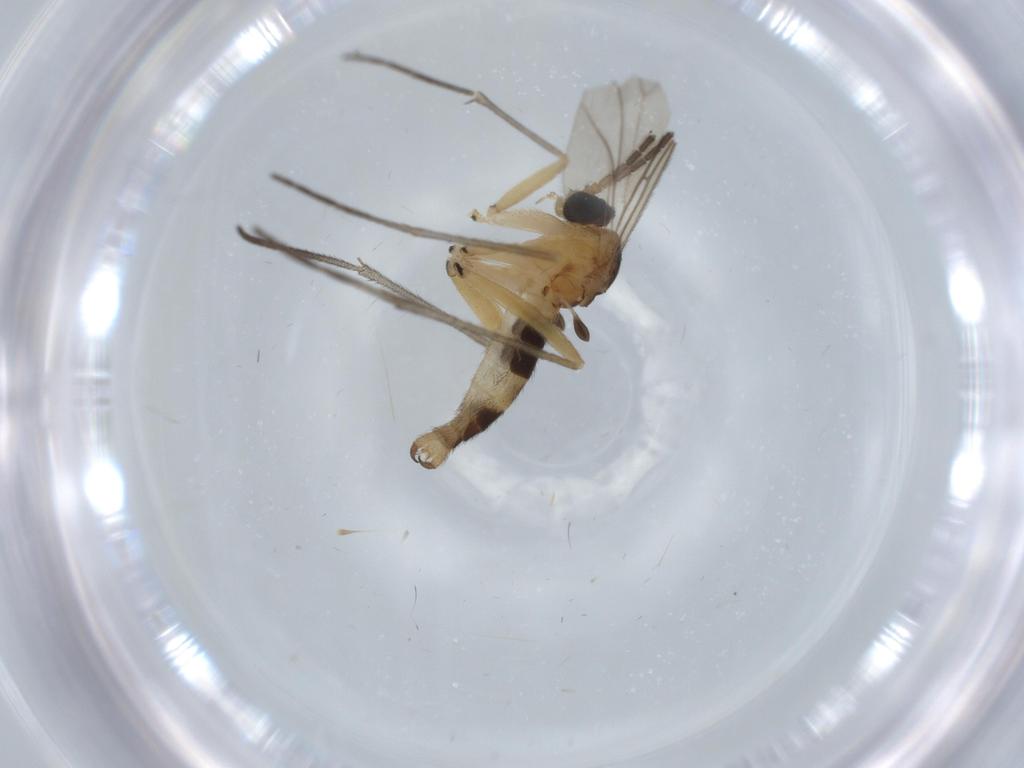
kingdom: Animalia
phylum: Arthropoda
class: Insecta
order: Diptera
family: Sciaridae
